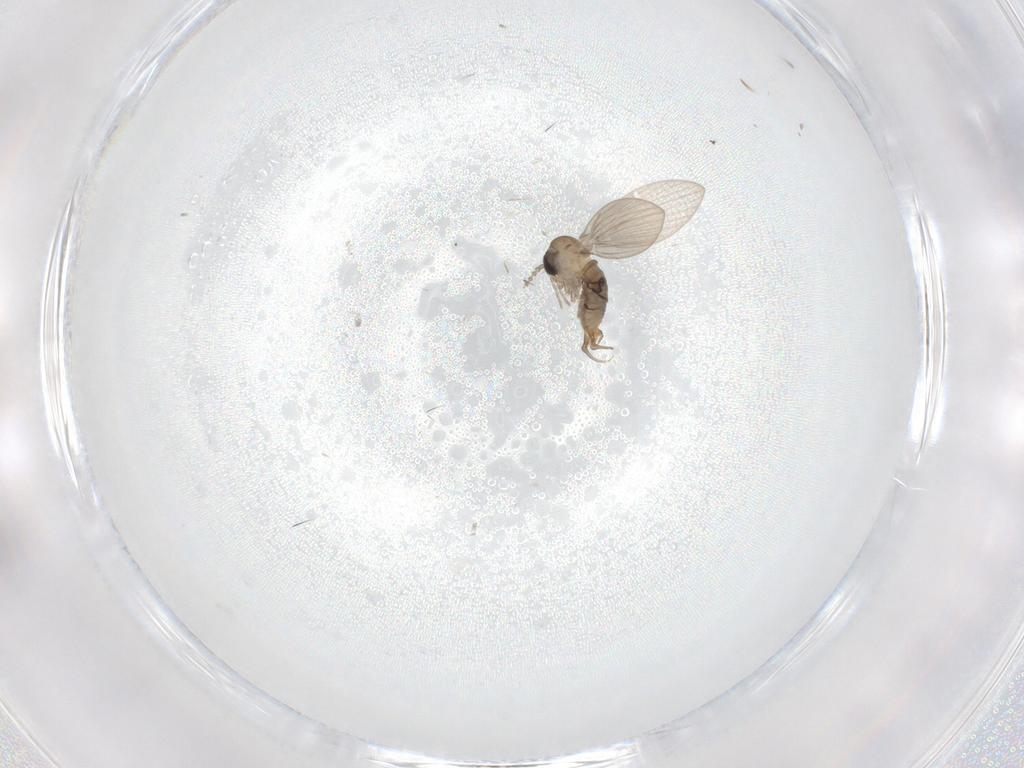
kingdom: Animalia
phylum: Arthropoda
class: Insecta
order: Diptera
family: Psychodidae
